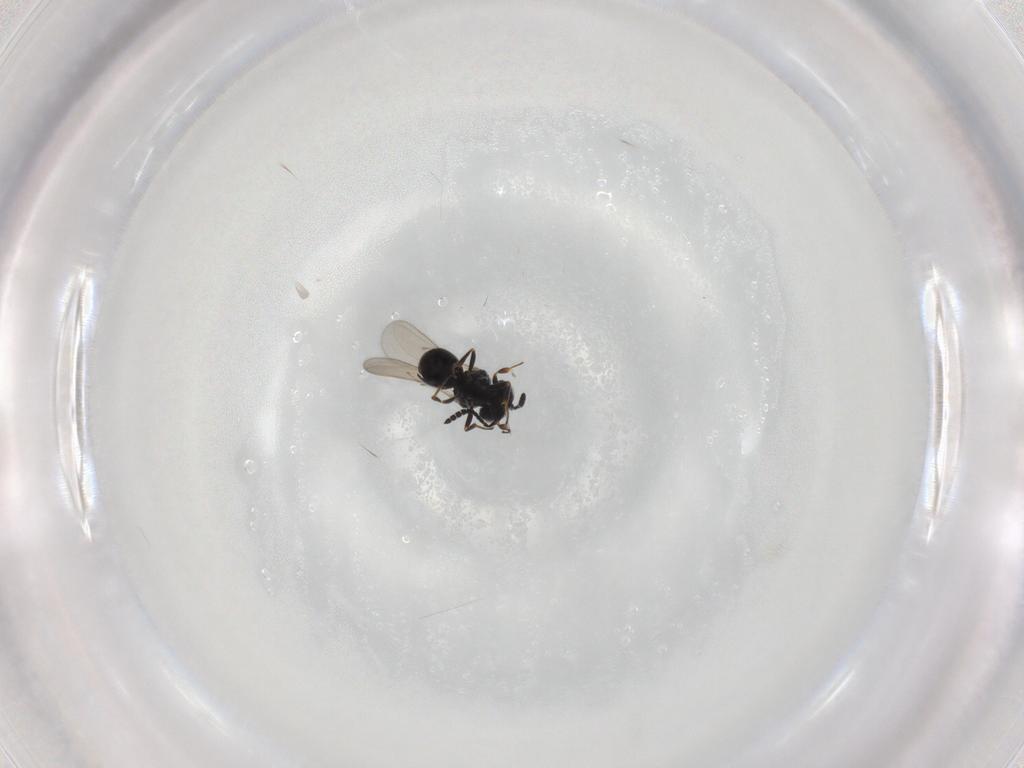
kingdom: Animalia
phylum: Arthropoda
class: Insecta
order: Hymenoptera
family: Scelionidae
